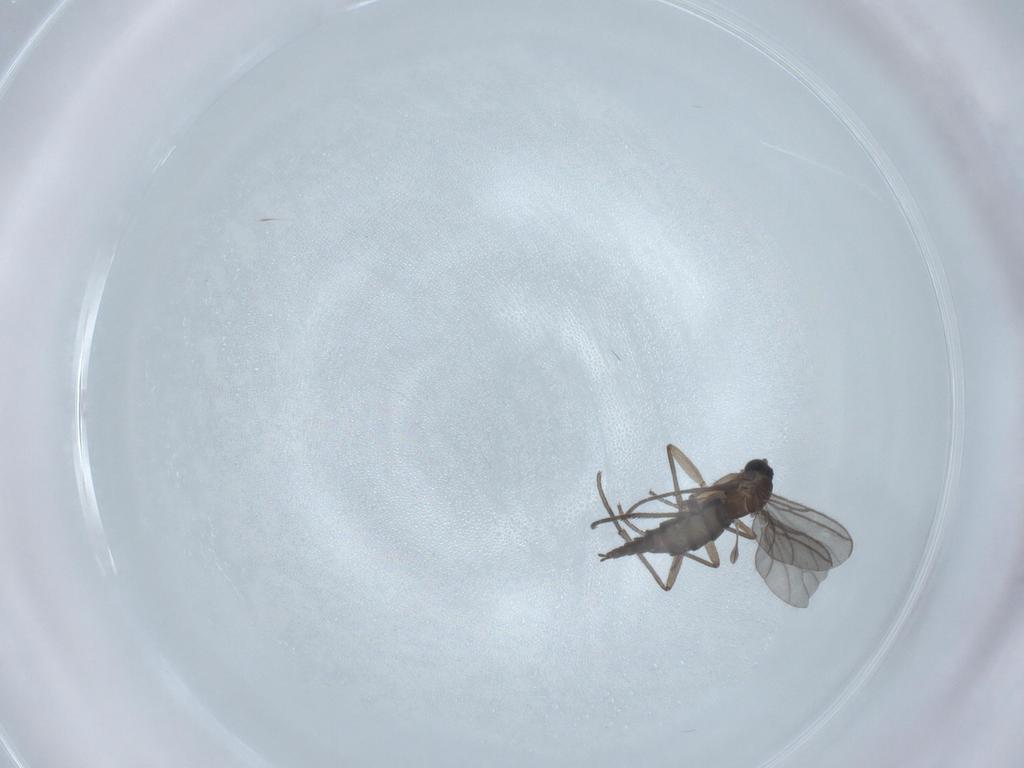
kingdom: Animalia
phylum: Arthropoda
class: Insecta
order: Diptera
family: Sciaridae
